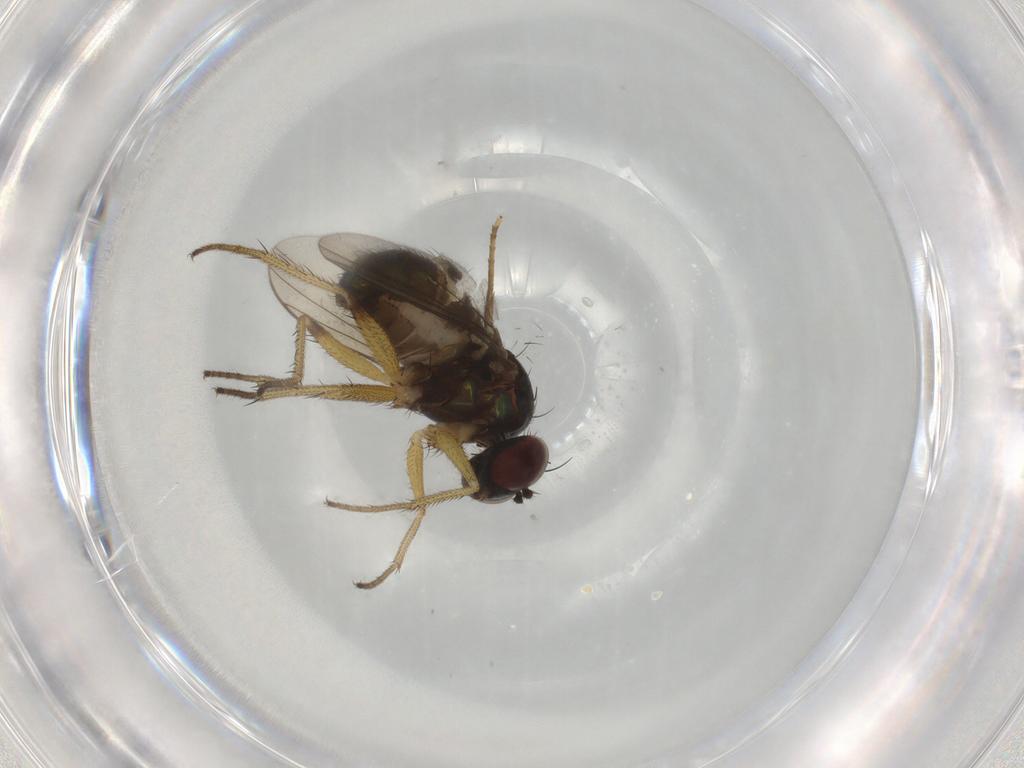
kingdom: Animalia
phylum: Arthropoda
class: Insecta
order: Diptera
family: Dolichopodidae
